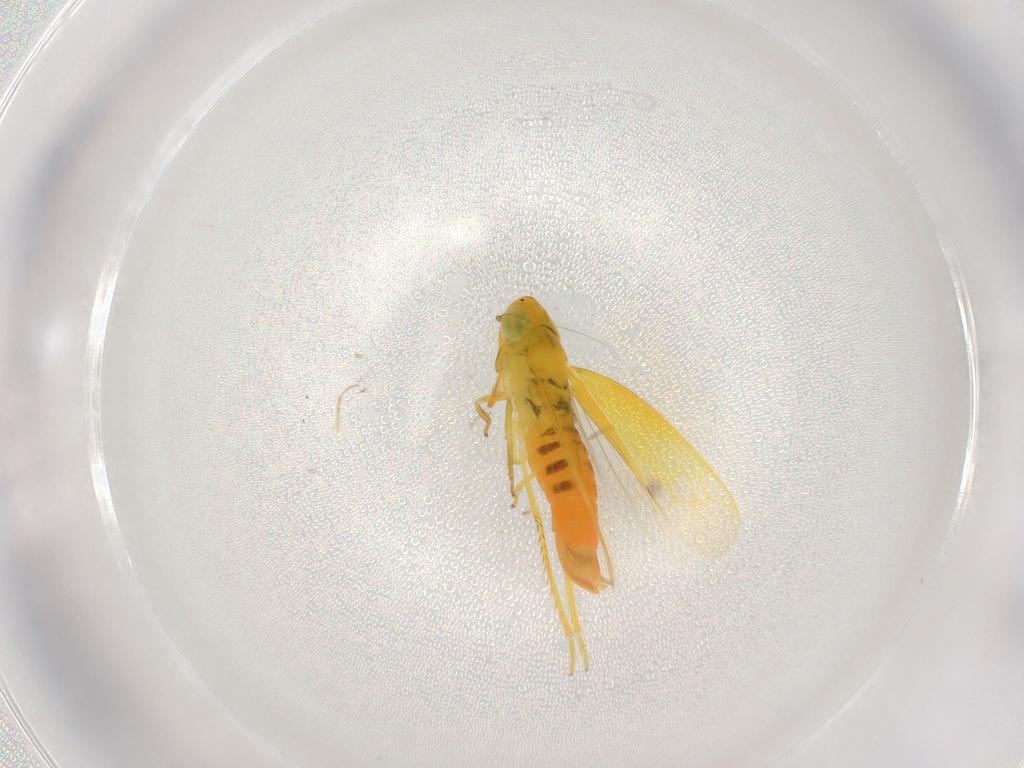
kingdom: Animalia
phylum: Arthropoda
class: Insecta
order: Hemiptera
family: Cicadellidae
